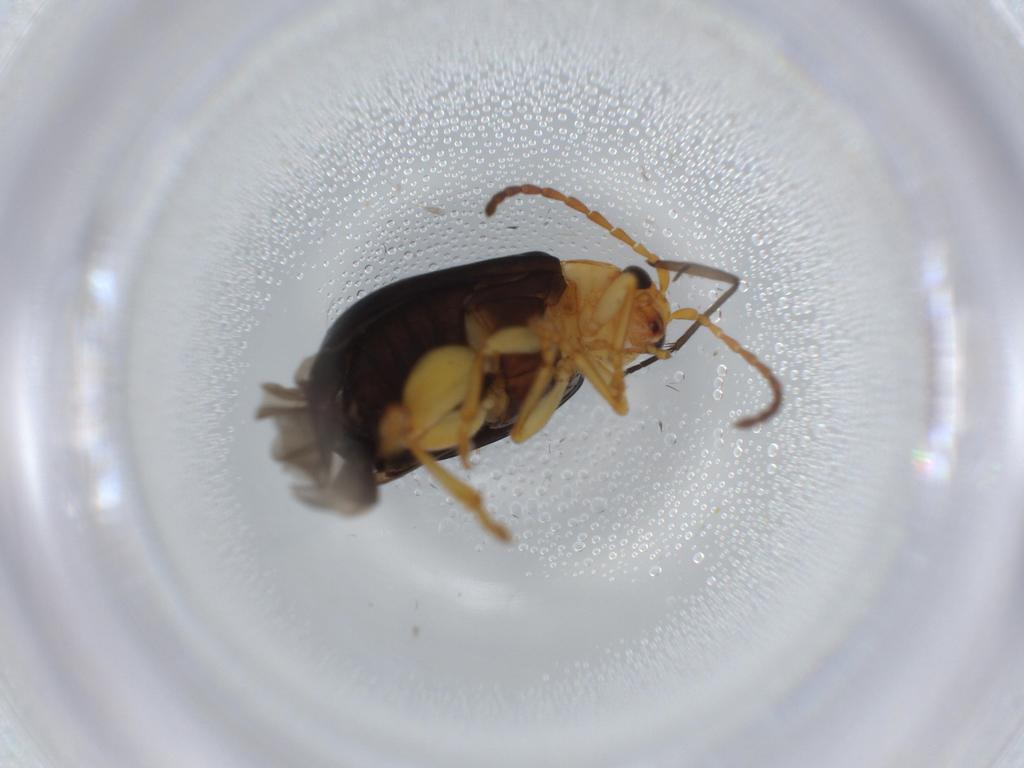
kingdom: Animalia
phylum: Arthropoda
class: Insecta
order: Coleoptera
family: Chrysomelidae
